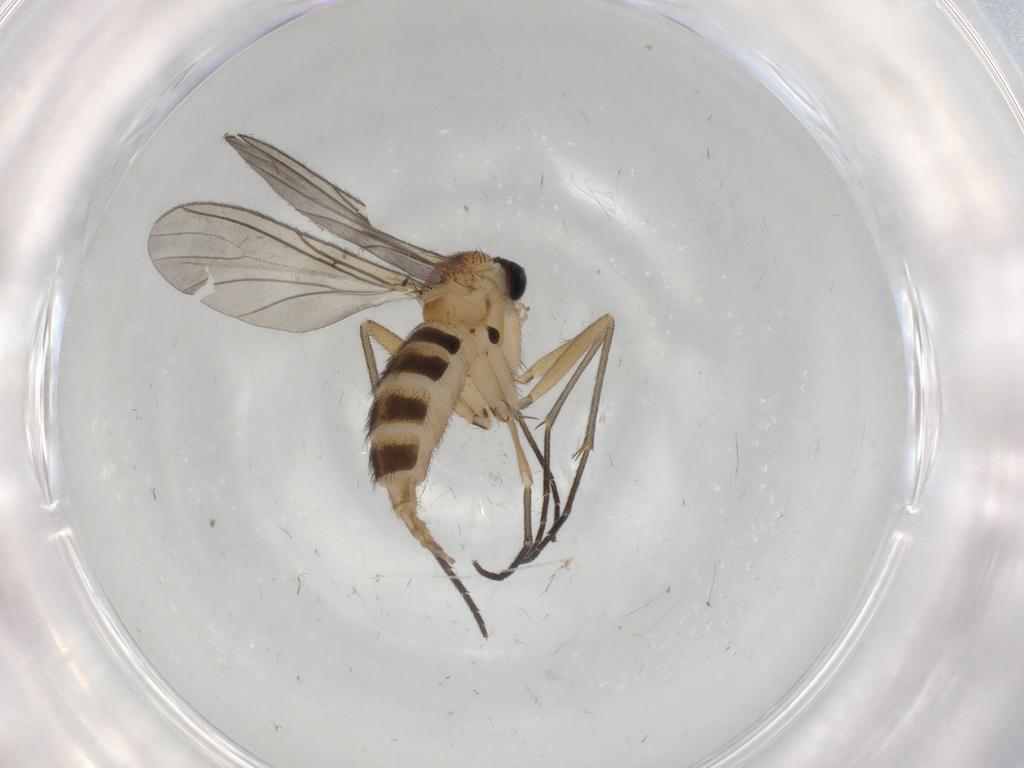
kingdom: Animalia
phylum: Arthropoda
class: Insecta
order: Diptera
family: Sciaridae
